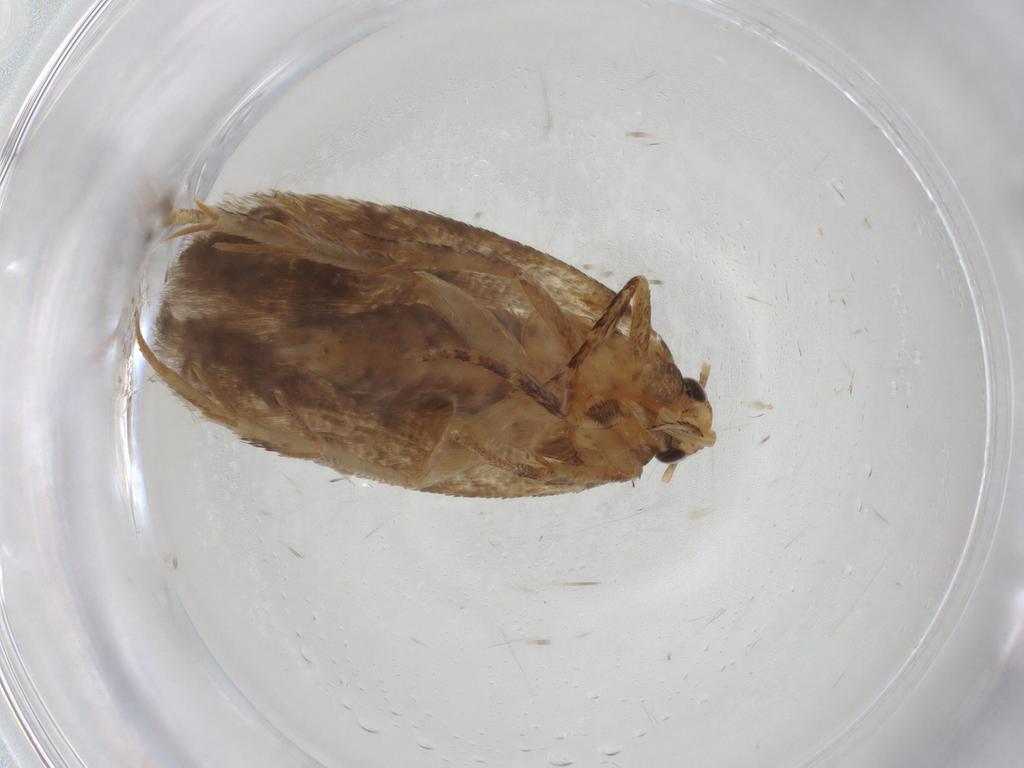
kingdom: Animalia
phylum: Arthropoda
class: Insecta
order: Lepidoptera
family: Gelechiidae
